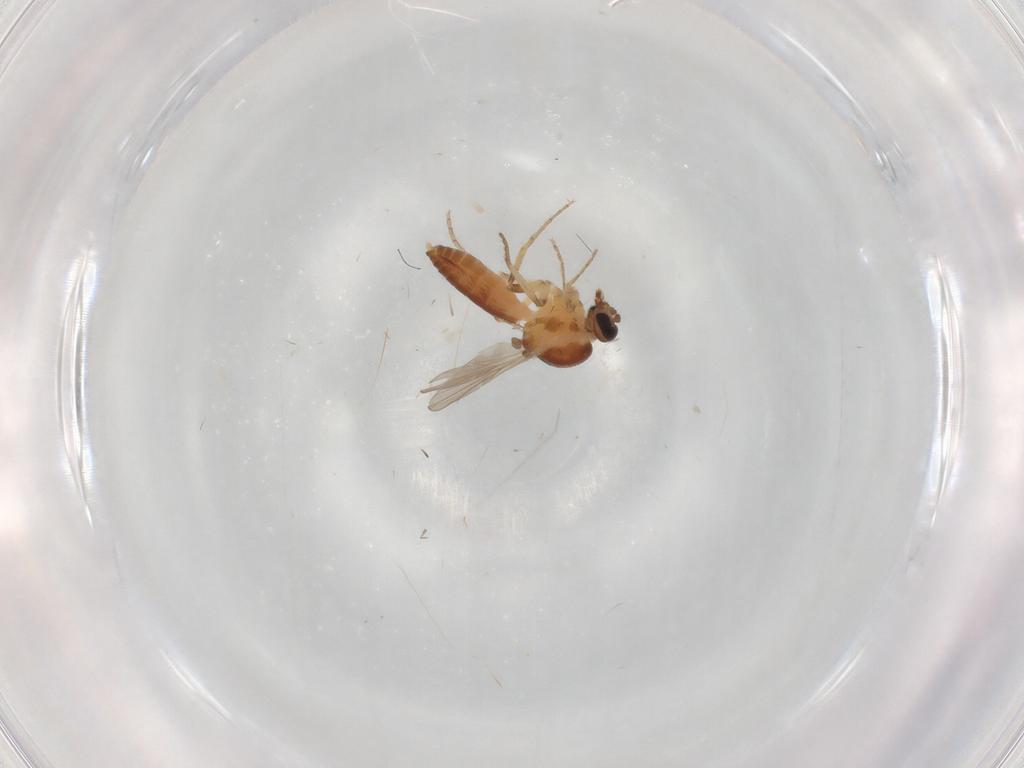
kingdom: Animalia
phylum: Arthropoda
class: Insecta
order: Diptera
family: Ceratopogonidae
